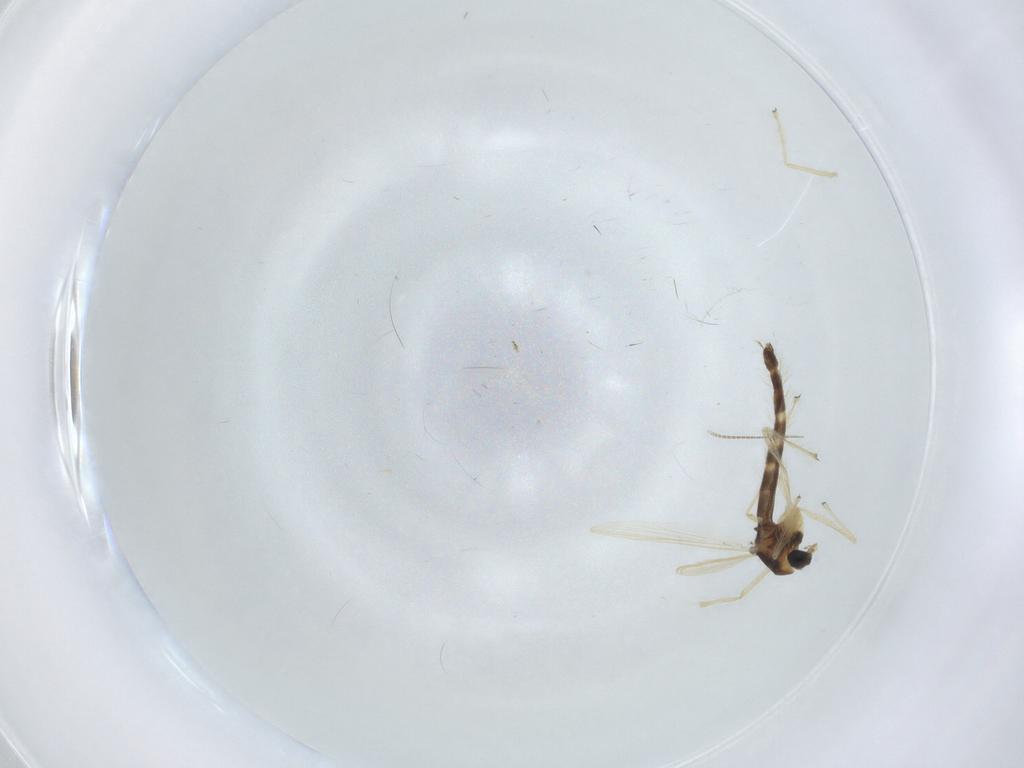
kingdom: Animalia
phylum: Arthropoda
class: Insecta
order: Diptera
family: Chironomidae
